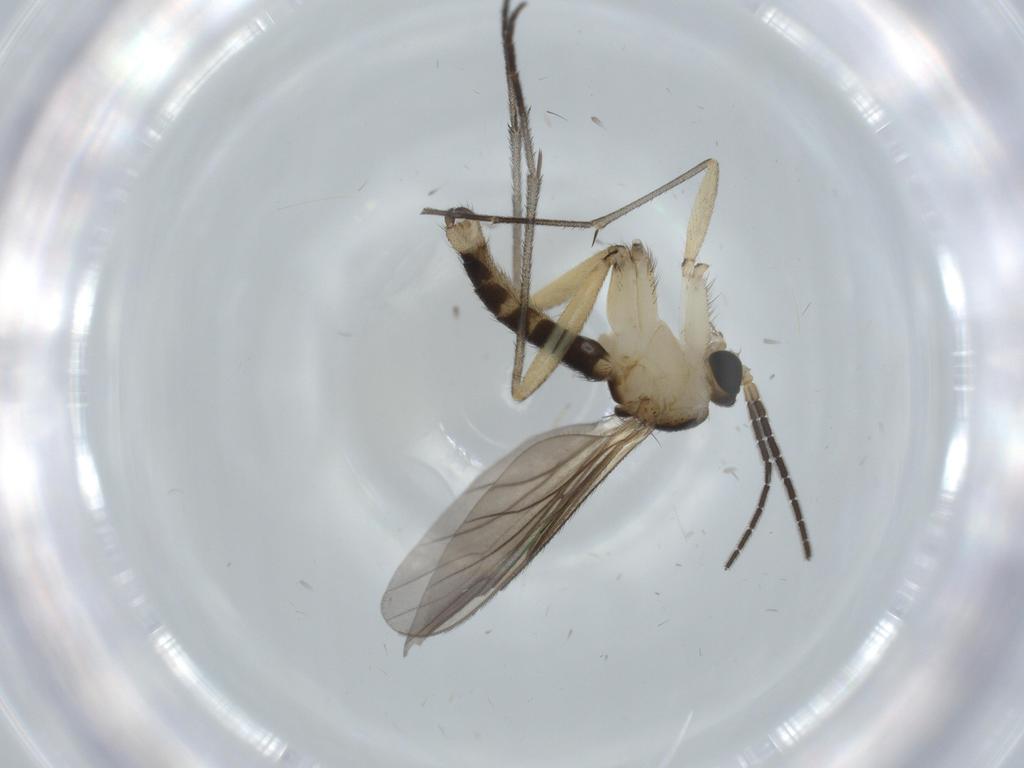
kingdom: Animalia
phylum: Arthropoda
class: Insecta
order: Diptera
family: Sciaridae
